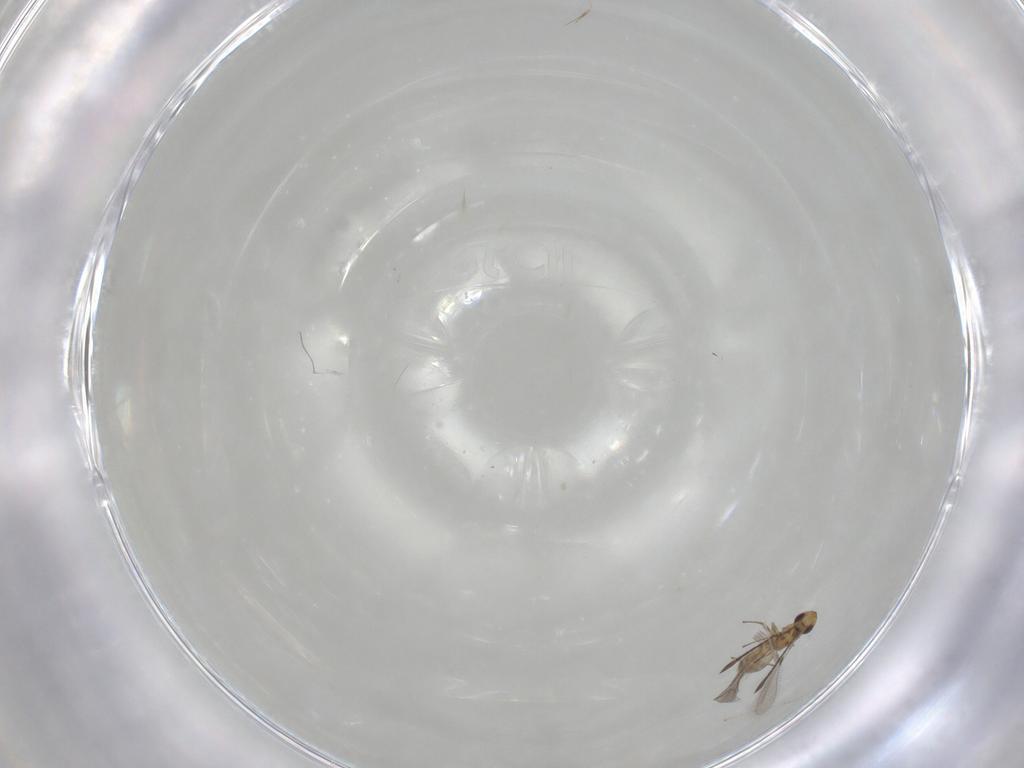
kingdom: Animalia
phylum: Arthropoda
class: Insecta
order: Hymenoptera
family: Mymaridae
